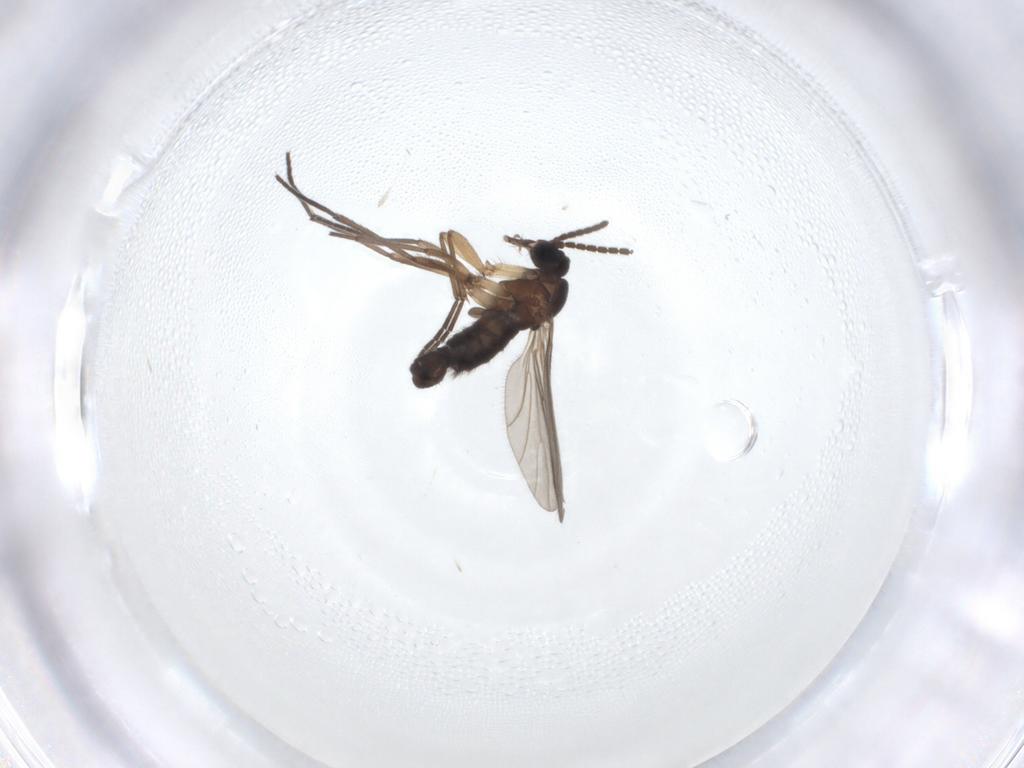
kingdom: Animalia
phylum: Arthropoda
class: Insecta
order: Diptera
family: Sciaridae
